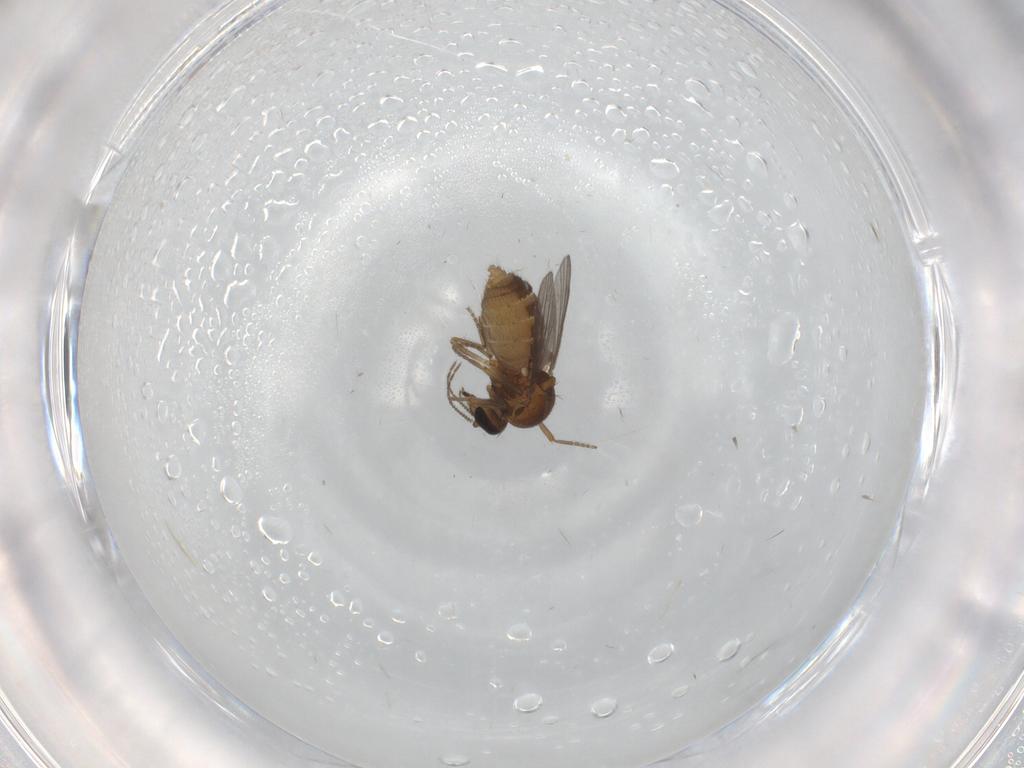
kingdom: Animalia
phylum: Arthropoda
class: Insecta
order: Diptera
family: Ceratopogonidae
